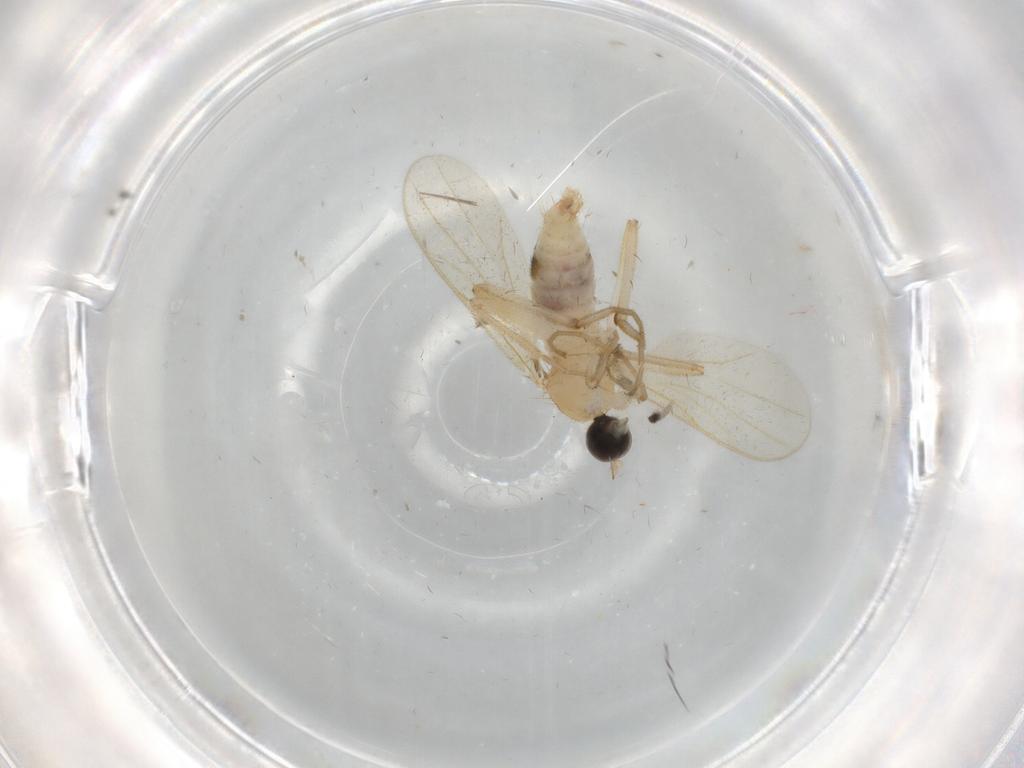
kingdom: Animalia
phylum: Arthropoda
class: Insecta
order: Diptera
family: Hybotidae
